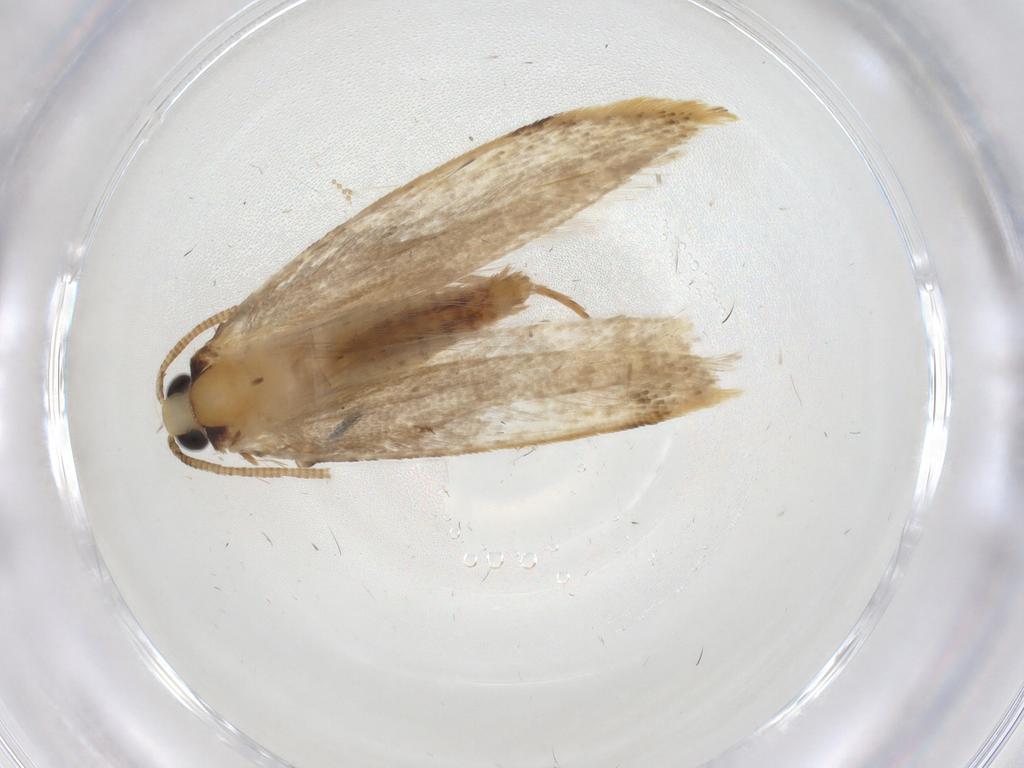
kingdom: Animalia
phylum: Arthropoda
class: Insecta
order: Lepidoptera
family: Tineidae
